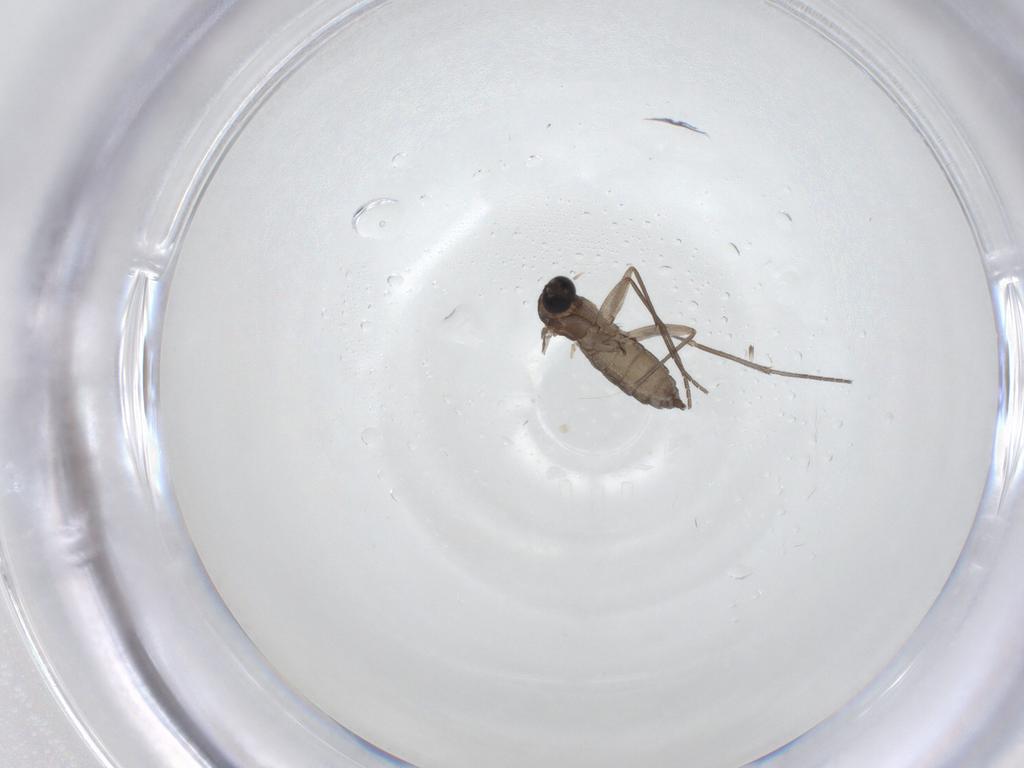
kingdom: Animalia
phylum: Arthropoda
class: Insecta
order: Diptera
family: Sciaridae
